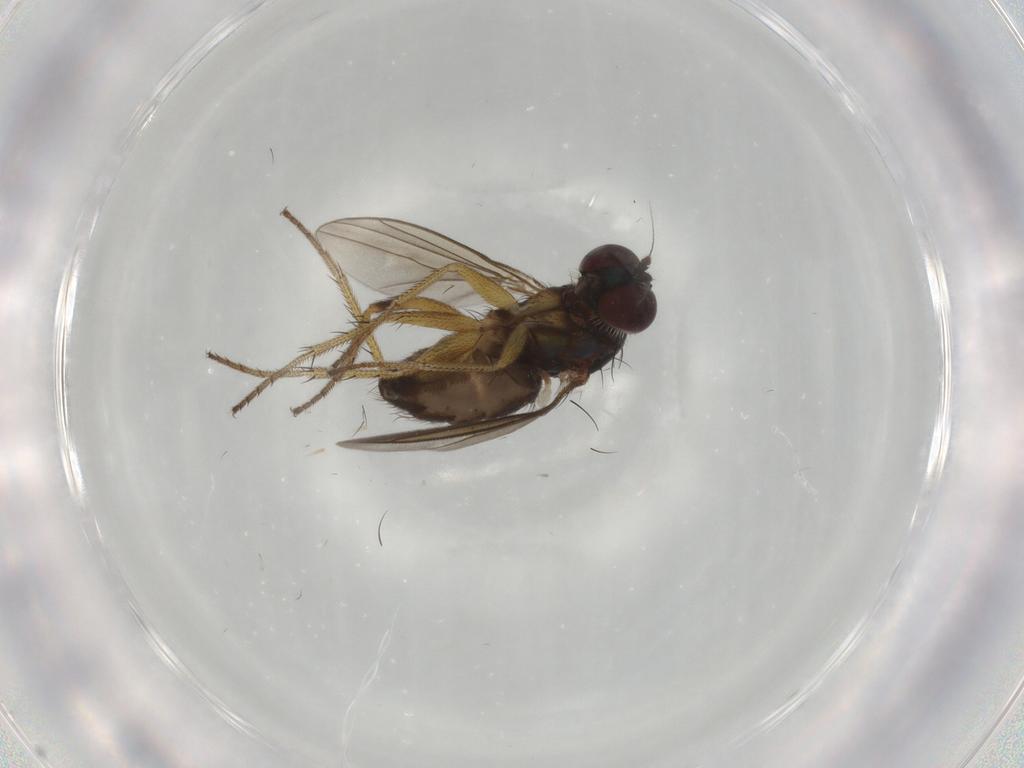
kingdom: Animalia
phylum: Arthropoda
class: Insecta
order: Diptera
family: Dolichopodidae
